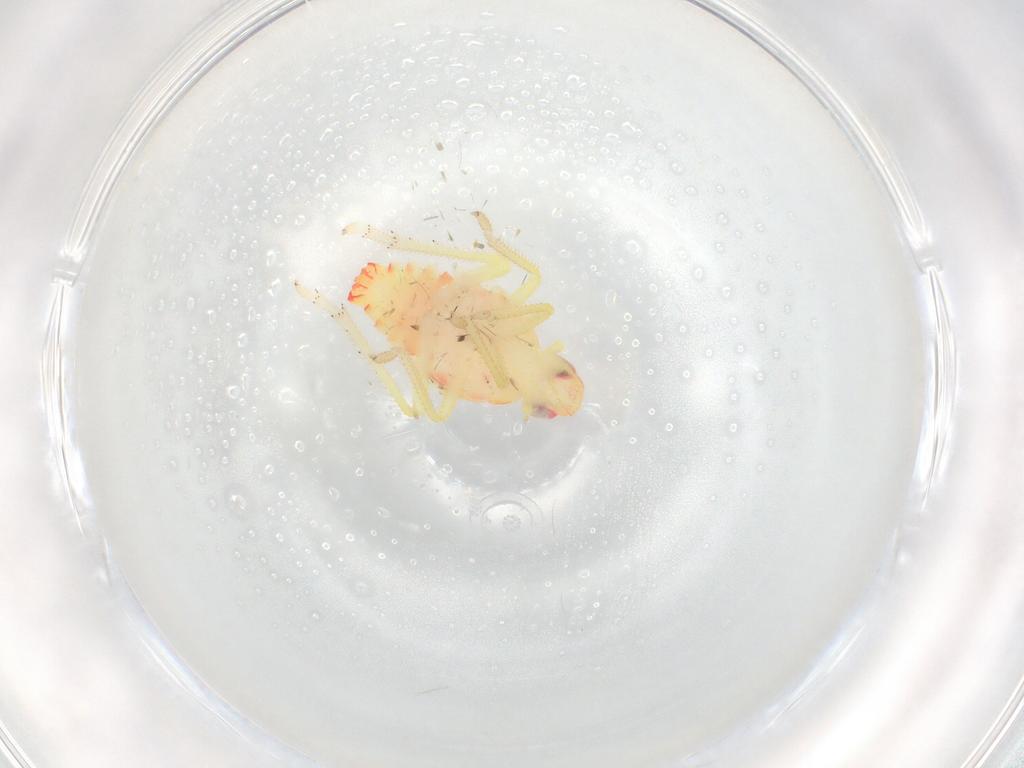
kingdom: Animalia
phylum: Arthropoda
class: Insecta
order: Hemiptera
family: Tropiduchidae
